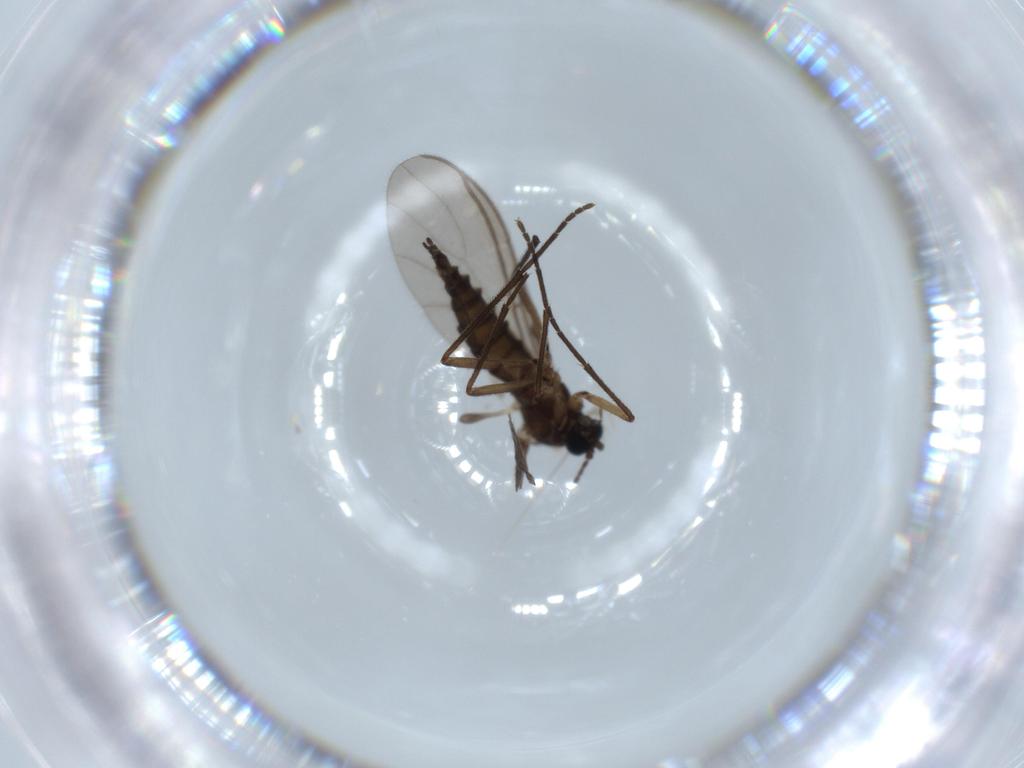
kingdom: Animalia
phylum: Arthropoda
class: Insecta
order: Diptera
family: Sciaridae
